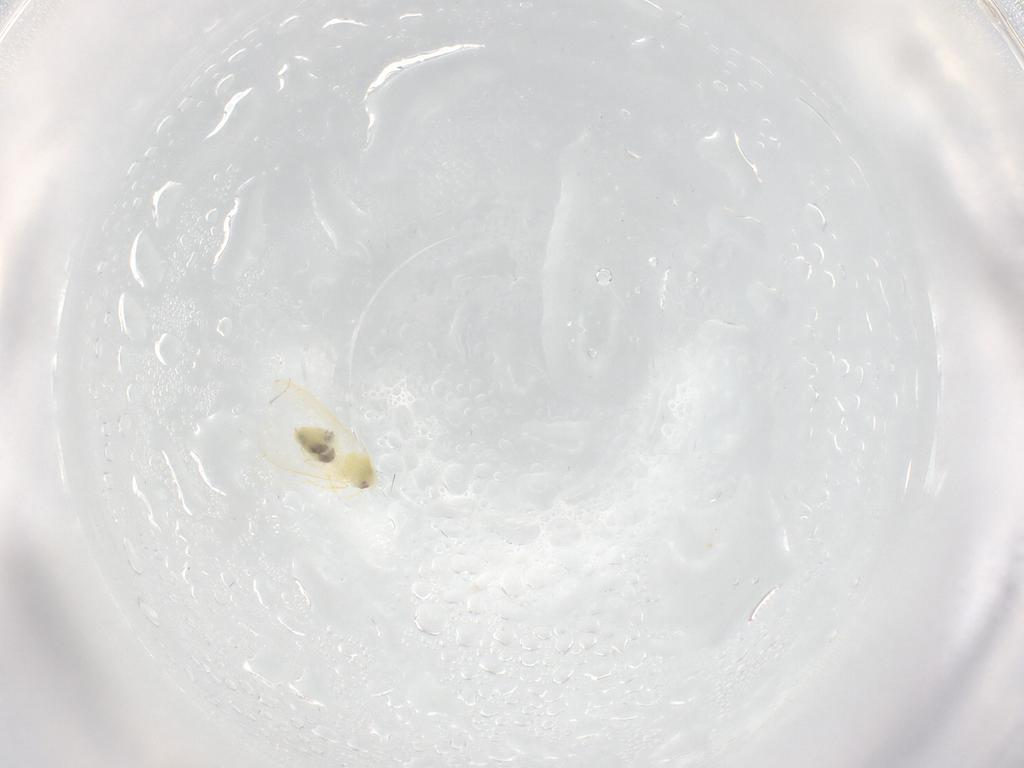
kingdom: Animalia
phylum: Arthropoda
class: Insecta
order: Hemiptera
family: Aleyrodidae
